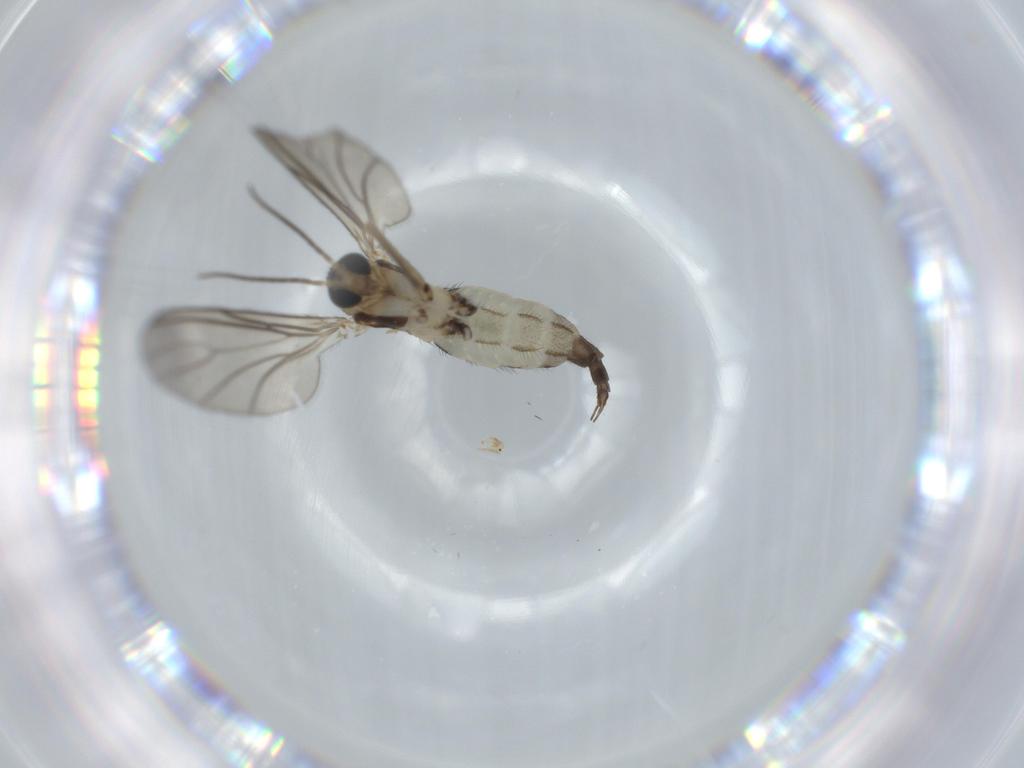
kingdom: Animalia
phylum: Arthropoda
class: Insecta
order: Diptera
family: Sciaridae
